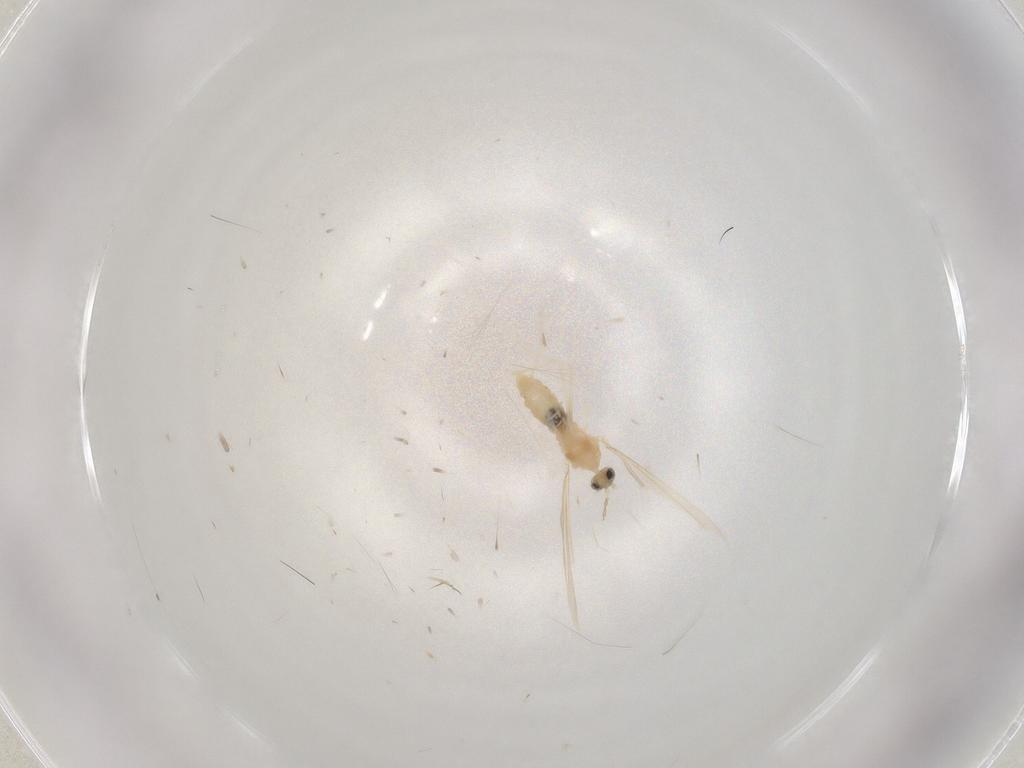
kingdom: Animalia
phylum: Arthropoda
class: Insecta
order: Diptera
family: Cecidomyiidae
